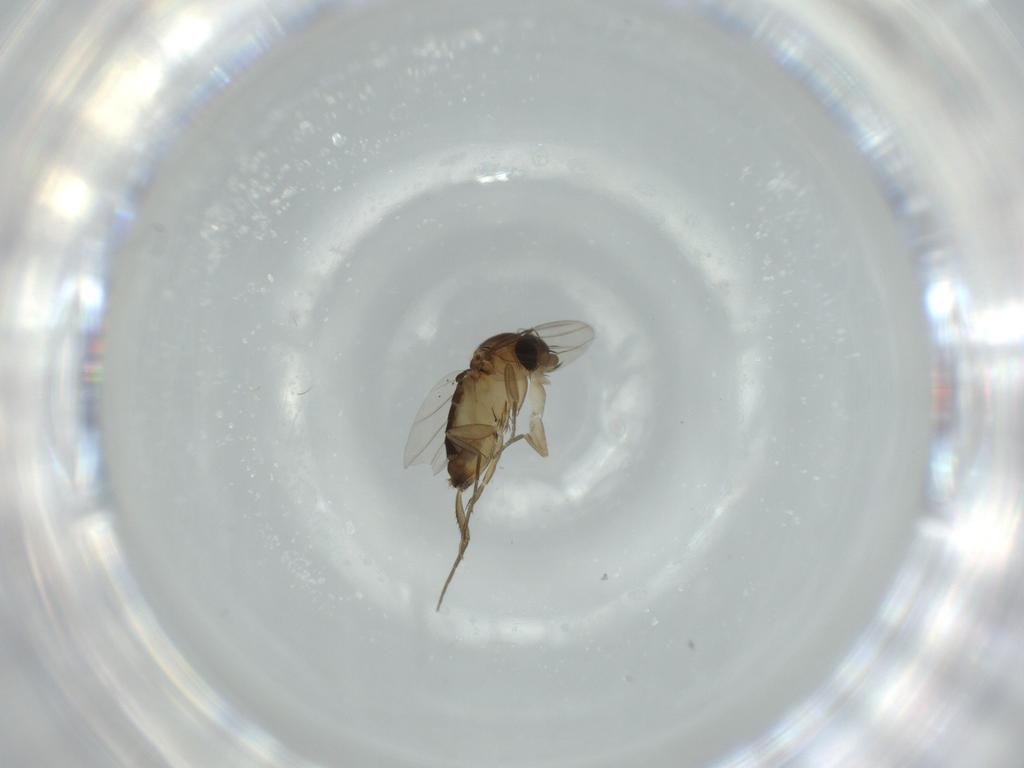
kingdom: Animalia
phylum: Arthropoda
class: Insecta
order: Diptera
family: Phoridae
